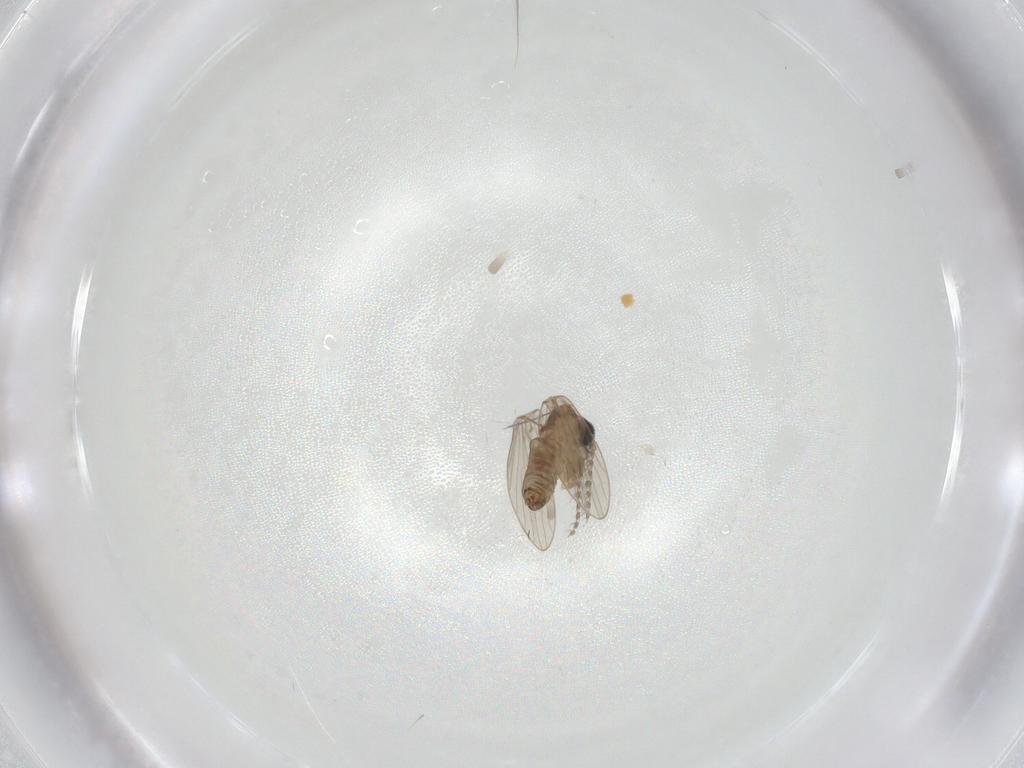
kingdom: Animalia
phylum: Arthropoda
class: Insecta
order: Diptera
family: Psychodidae
